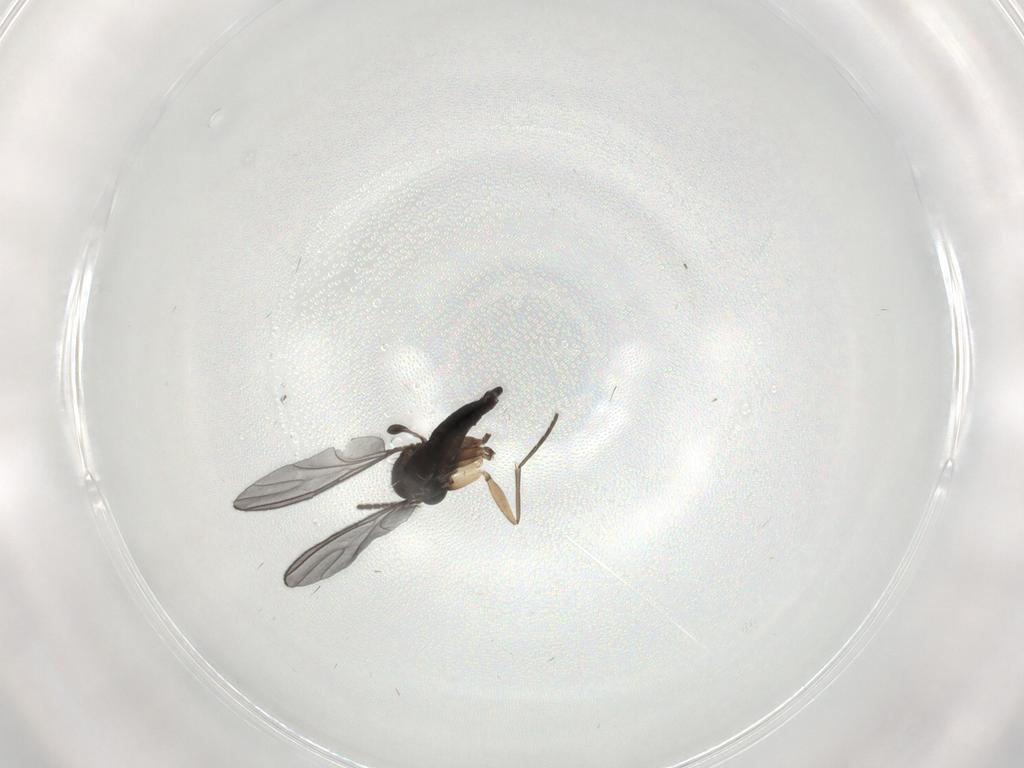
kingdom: Animalia
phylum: Arthropoda
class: Insecta
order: Diptera
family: Sciaridae
